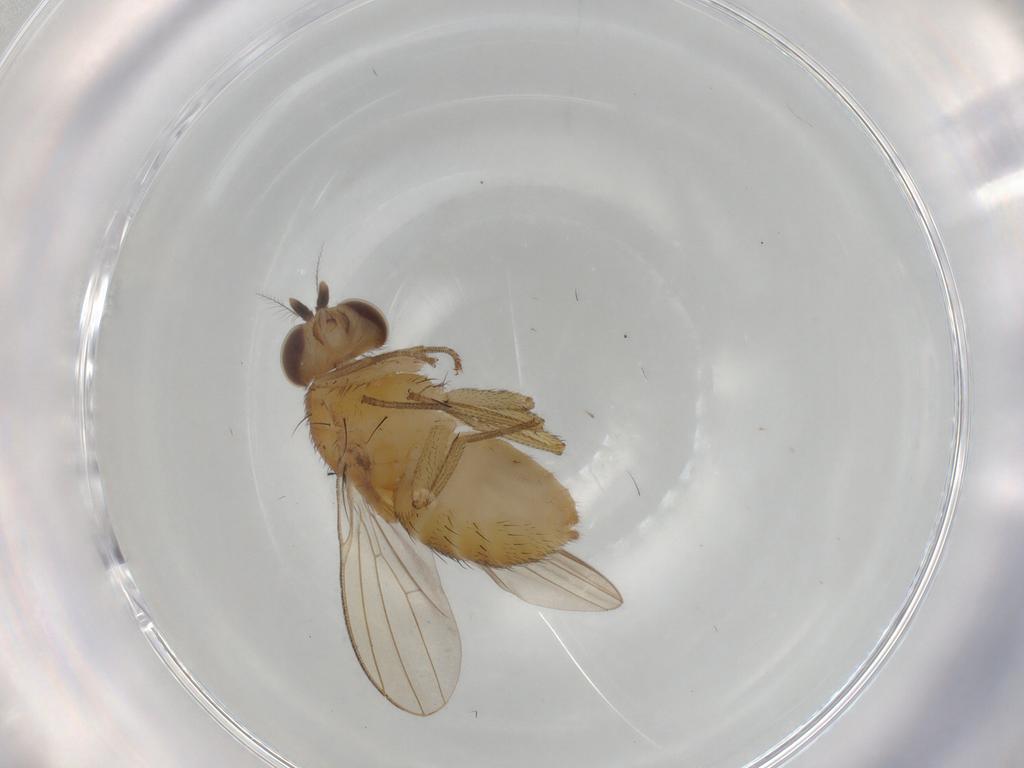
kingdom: Animalia
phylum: Arthropoda
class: Insecta
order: Diptera
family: Lauxaniidae
